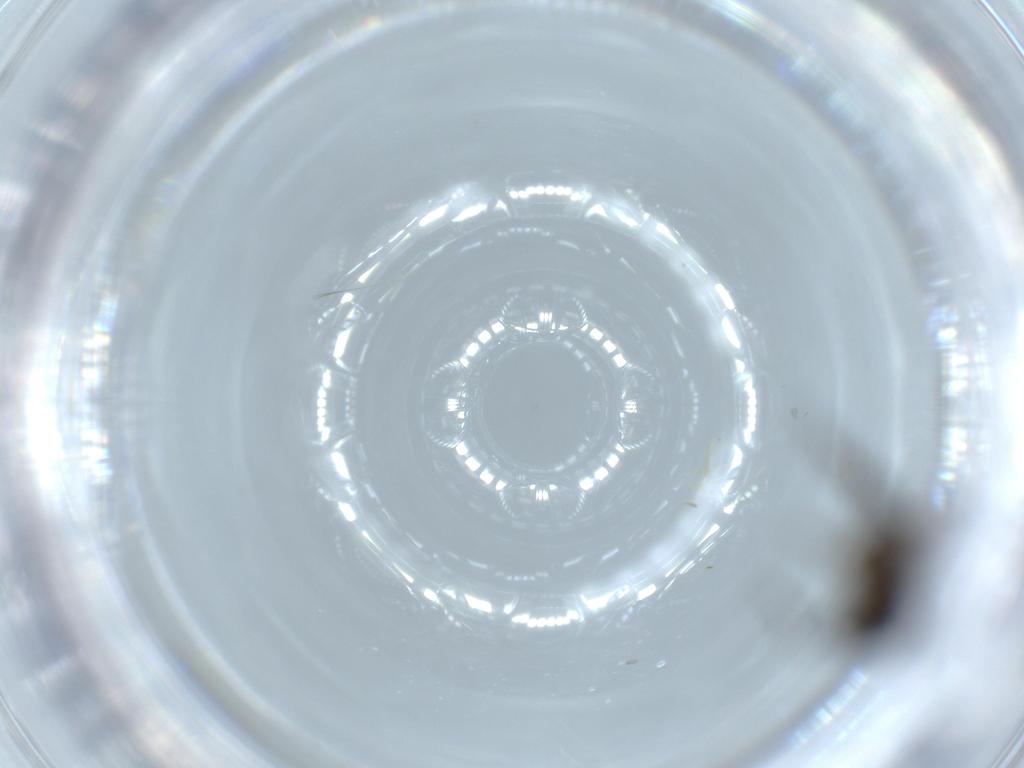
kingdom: Animalia
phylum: Arthropoda
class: Insecta
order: Diptera
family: Sciaridae
